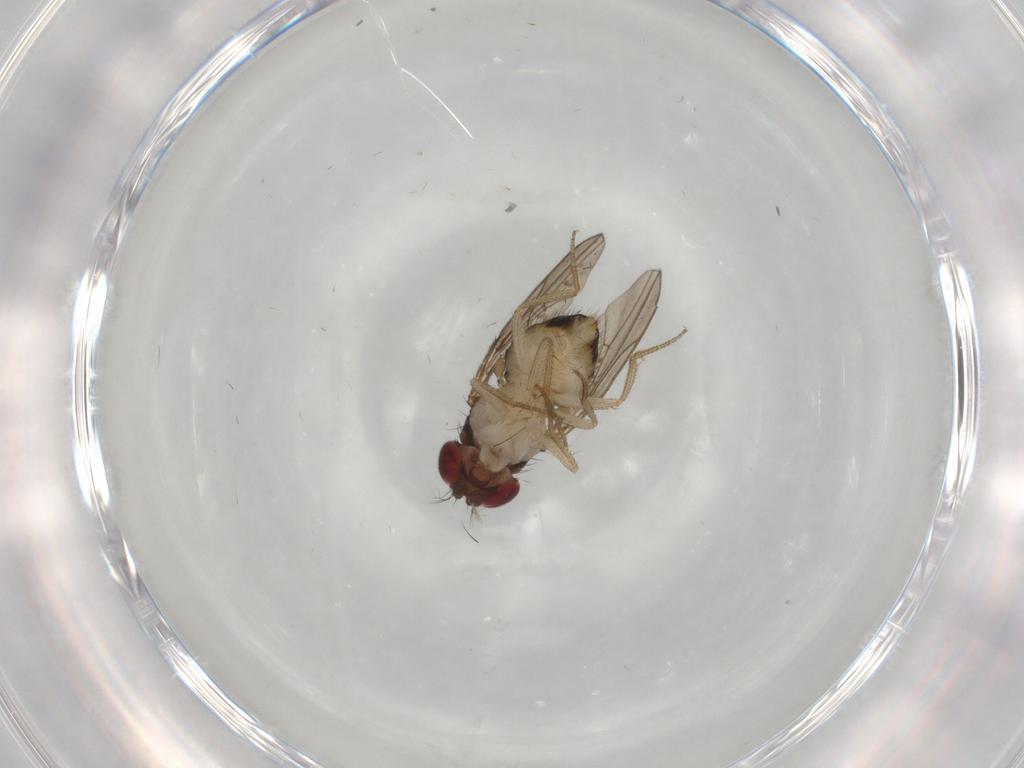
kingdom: Animalia
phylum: Arthropoda
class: Insecta
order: Diptera
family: Drosophilidae
